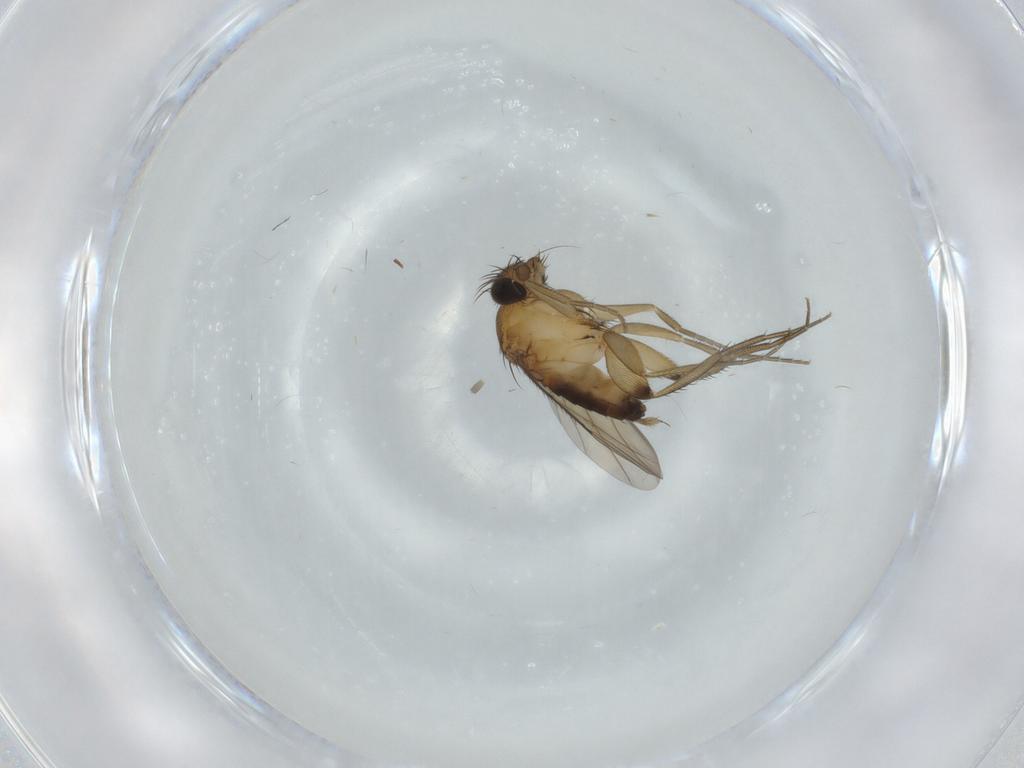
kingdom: Animalia
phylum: Arthropoda
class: Insecta
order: Diptera
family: Phoridae
